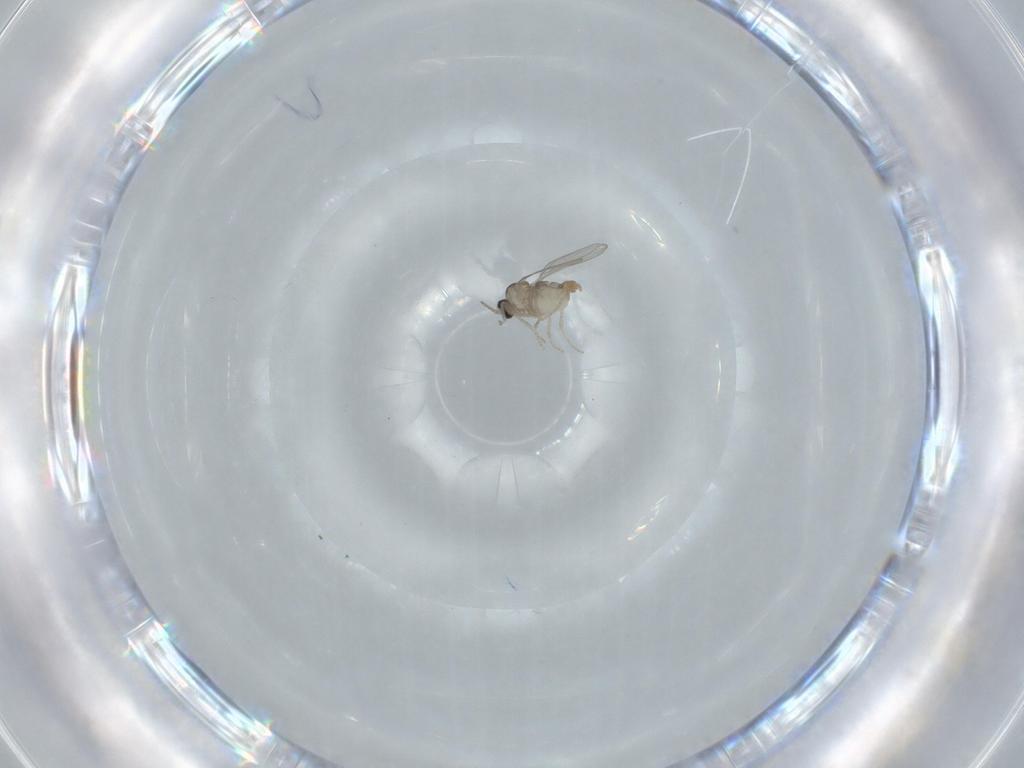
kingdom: Animalia
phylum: Arthropoda
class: Insecta
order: Diptera
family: Cecidomyiidae
